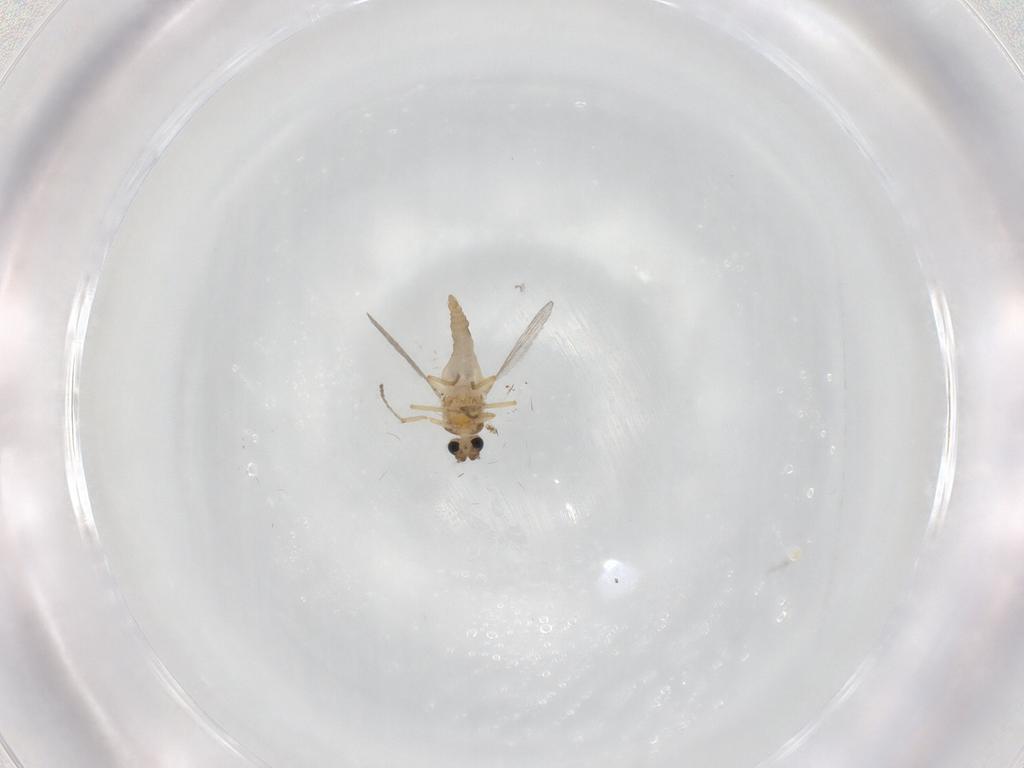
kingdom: Animalia
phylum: Arthropoda
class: Insecta
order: Diptera
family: Ceratopogonidae
